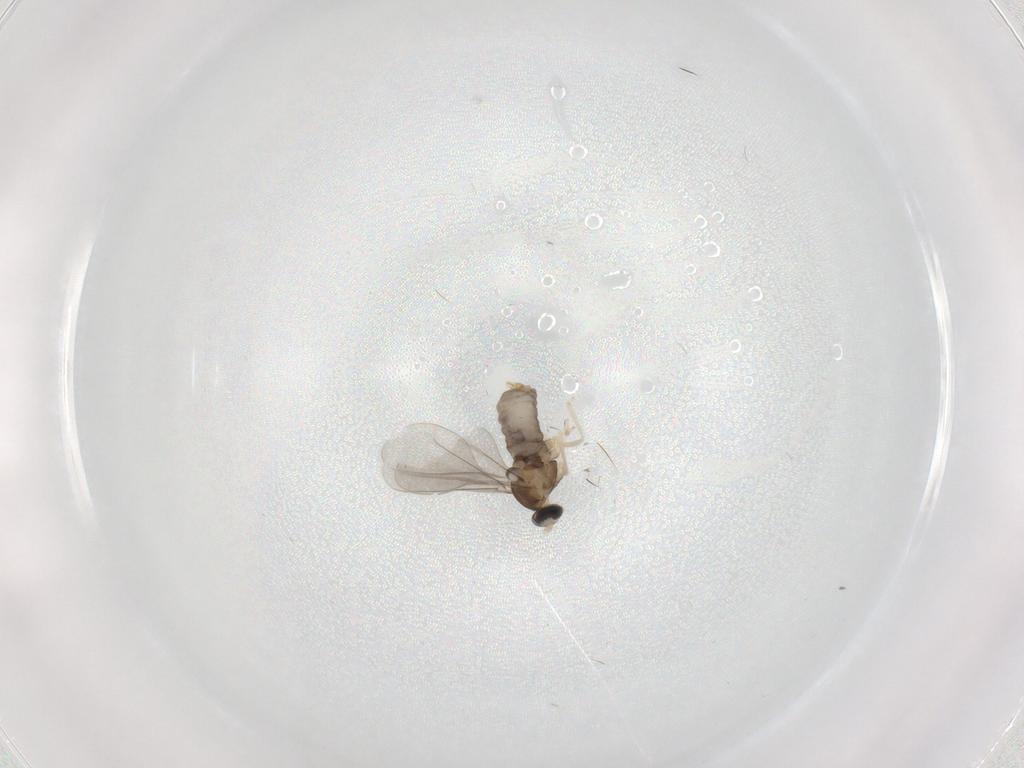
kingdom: Animalia
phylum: Arthropoda
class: Insecta
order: Diptera
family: Cecidomyiidae
